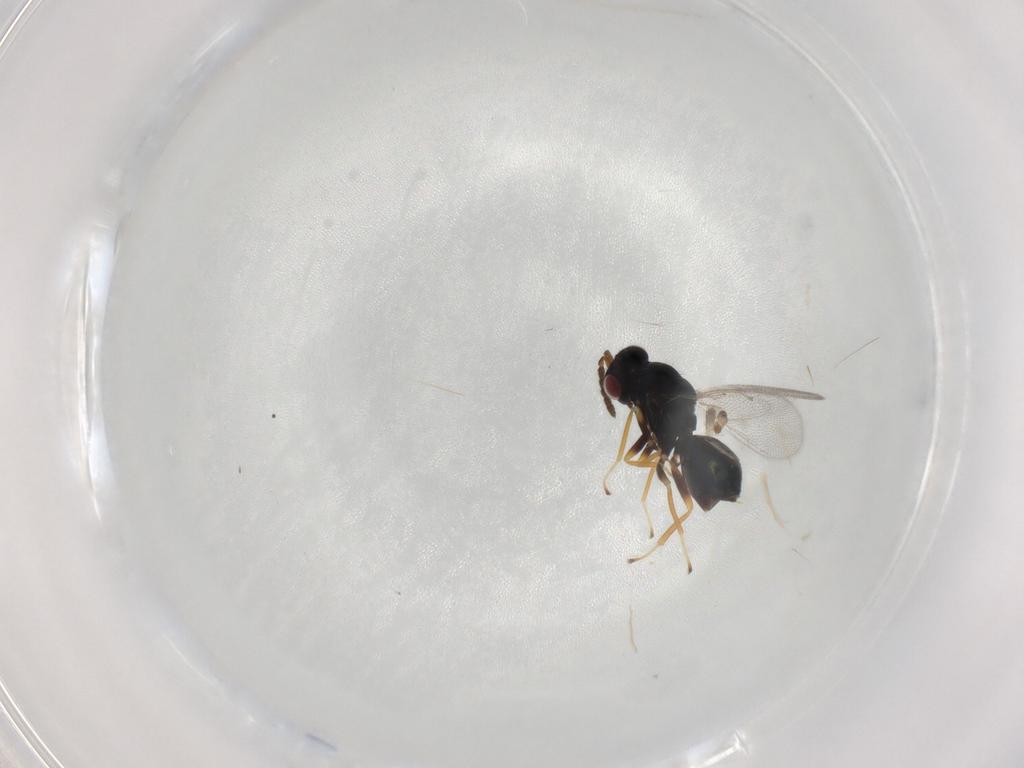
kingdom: Animalia
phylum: Arthropoda
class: Insecta
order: Hymenoptera
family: Eulophidae
